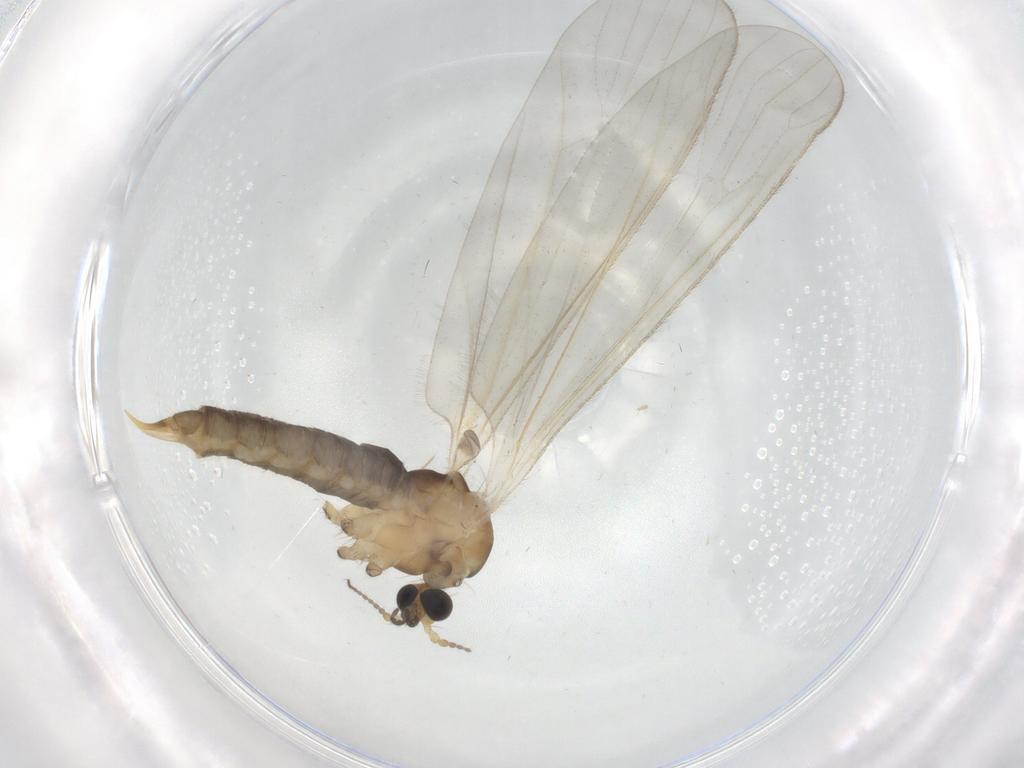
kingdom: Animalia
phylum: Arthropoda
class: Insecta
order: Diptera
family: Limoniidae
